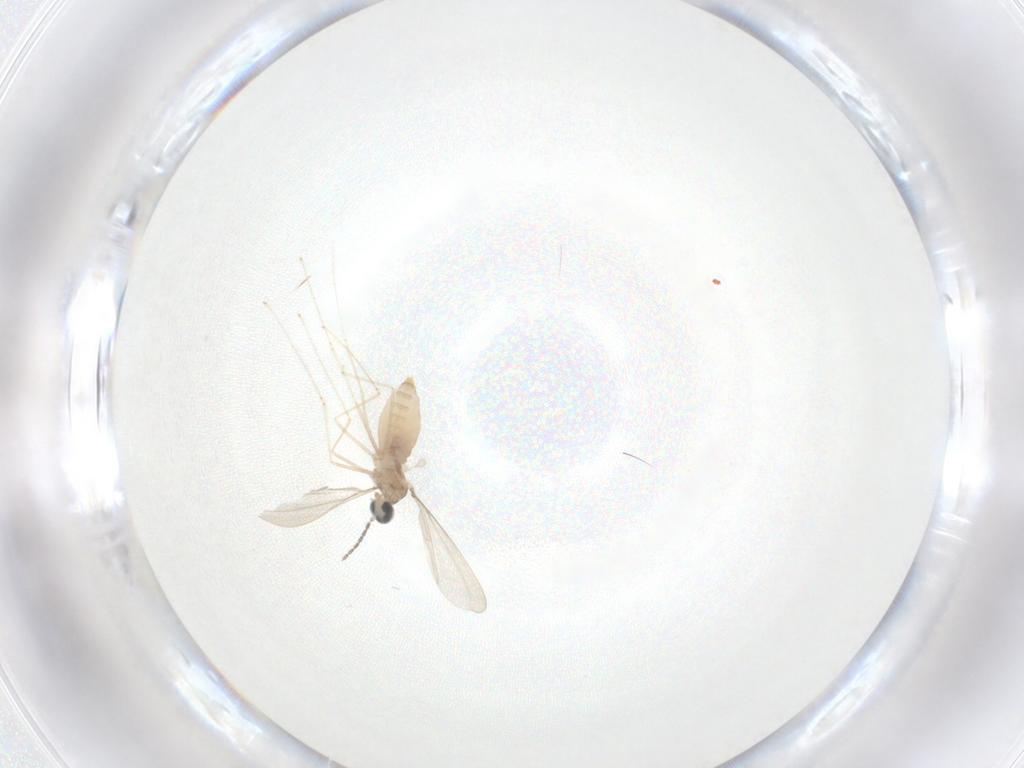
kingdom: Animalia
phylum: Arthropoda
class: Insecta
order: Diptera
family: Cecidomyiidae
